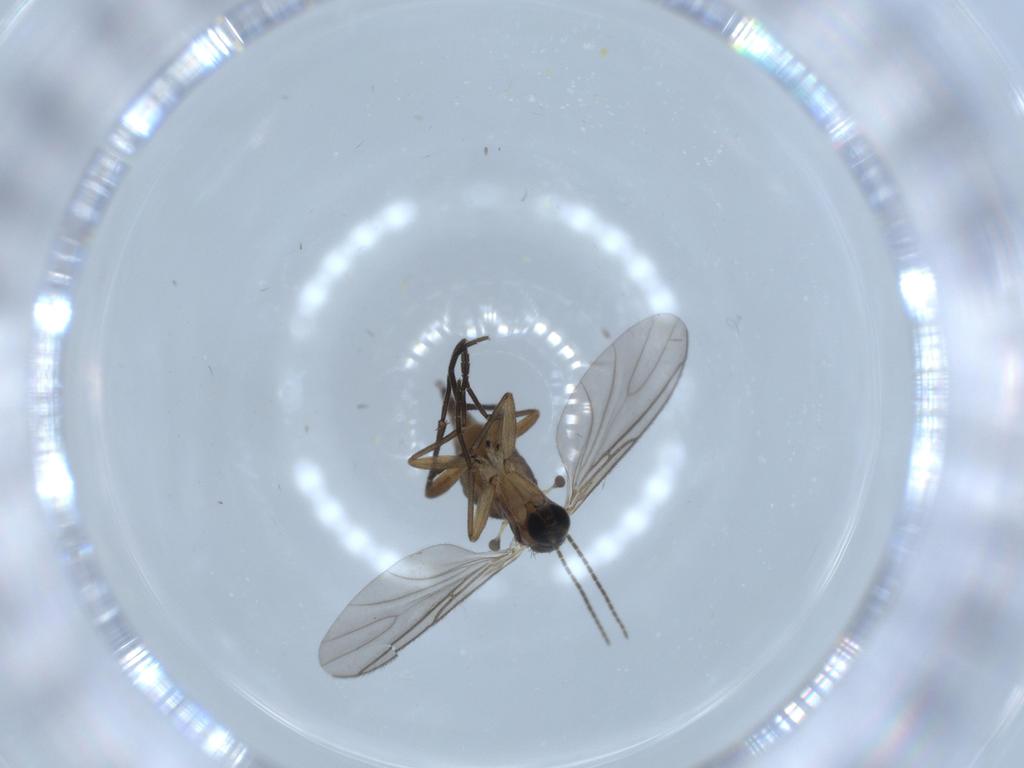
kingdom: Animalia
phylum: Arthropoda
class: Insecta
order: Diptera
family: Sciaridae
